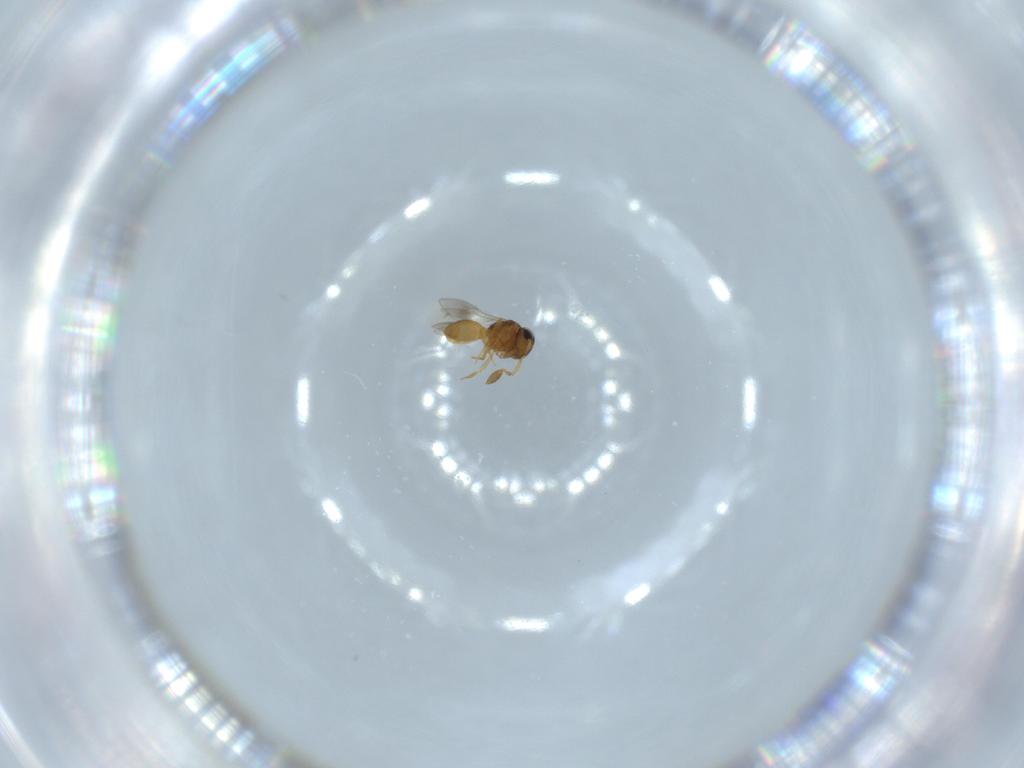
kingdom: Animalia
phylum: Arthropoda
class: Insecta
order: Hymenoptera
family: Scelionidae
